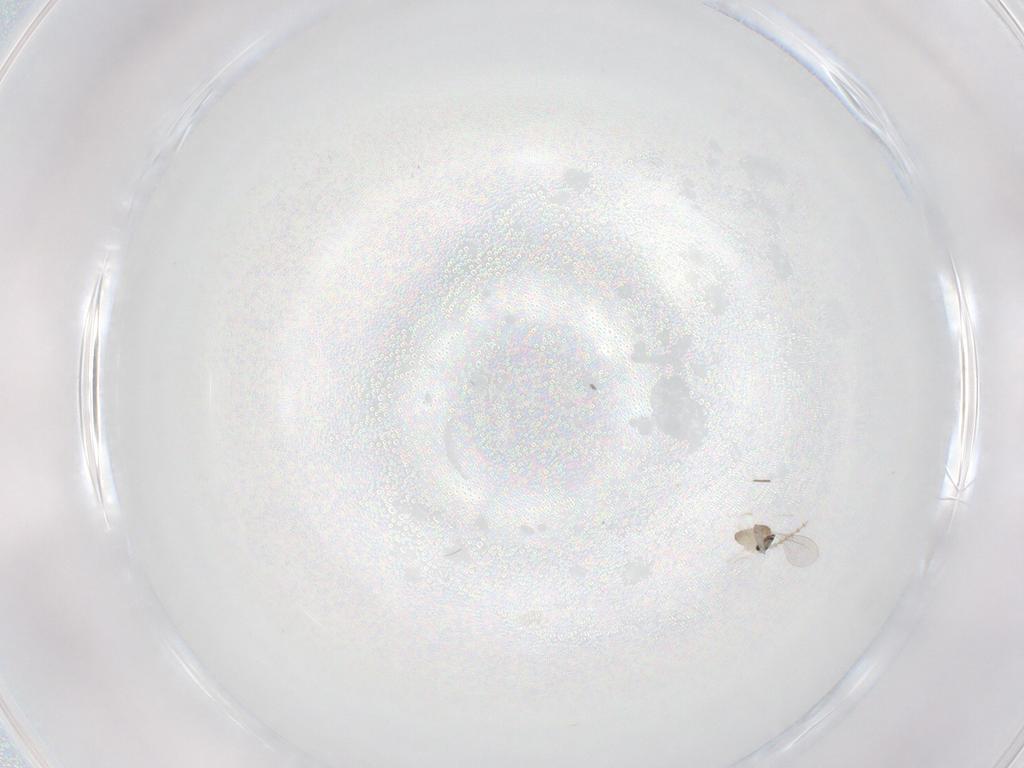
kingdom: Animalia
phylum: Arthropoda
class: Insecta
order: Diptera
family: Cecidomyiidae
